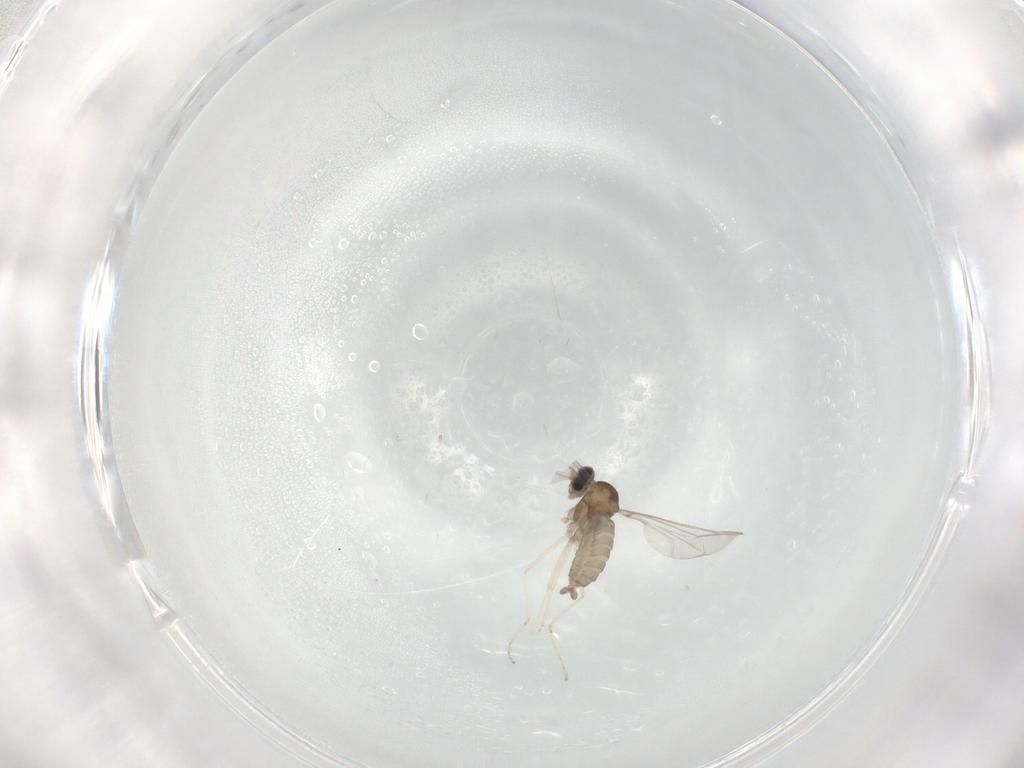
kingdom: Animalia
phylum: Arthropoda
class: Insecta
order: Diptera
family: Cecidomyiidae
